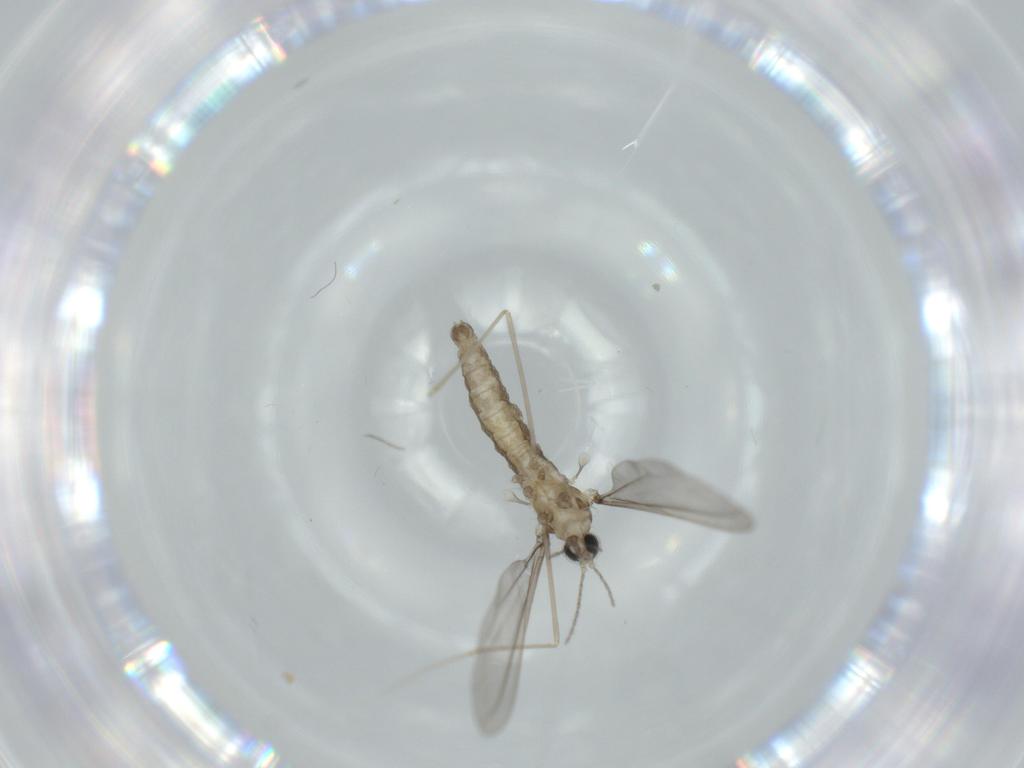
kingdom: Animalia
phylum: Arthropoda
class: Insecta
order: Diptera
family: Cecidomyiidae
